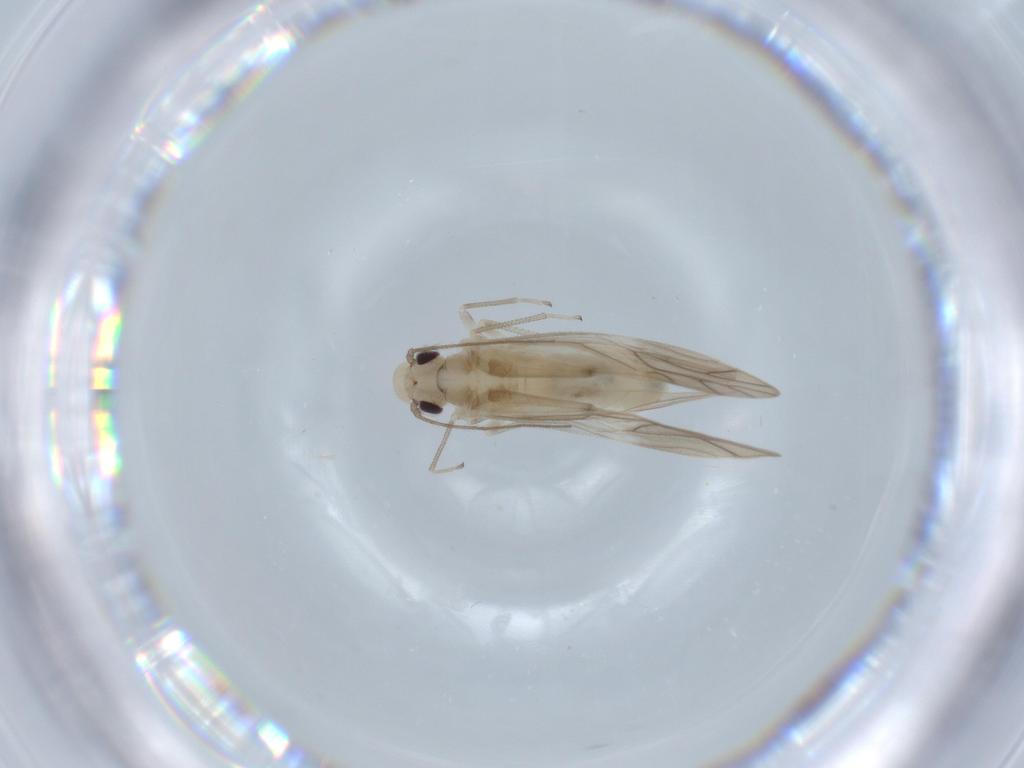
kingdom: Animalia
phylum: Arthropoda
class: Insecta
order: Psocodea
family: Caeciliusidae
